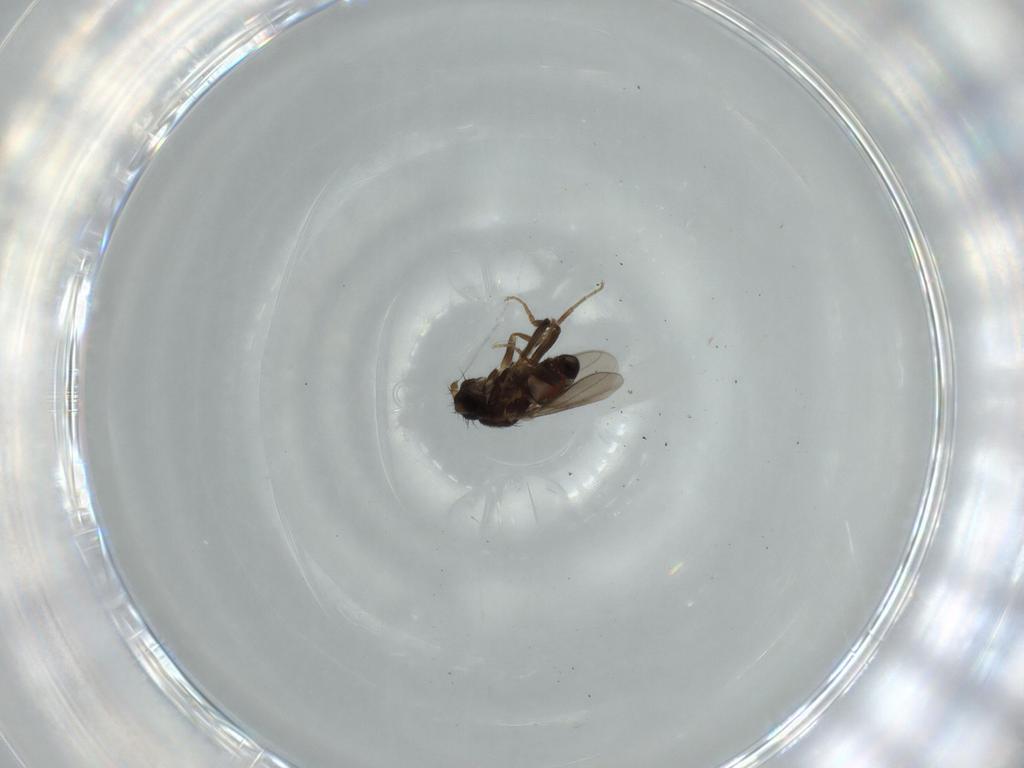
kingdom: Animalia
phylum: Arthropoda
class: Insecta
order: Diptera
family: Sphaeroceridae
